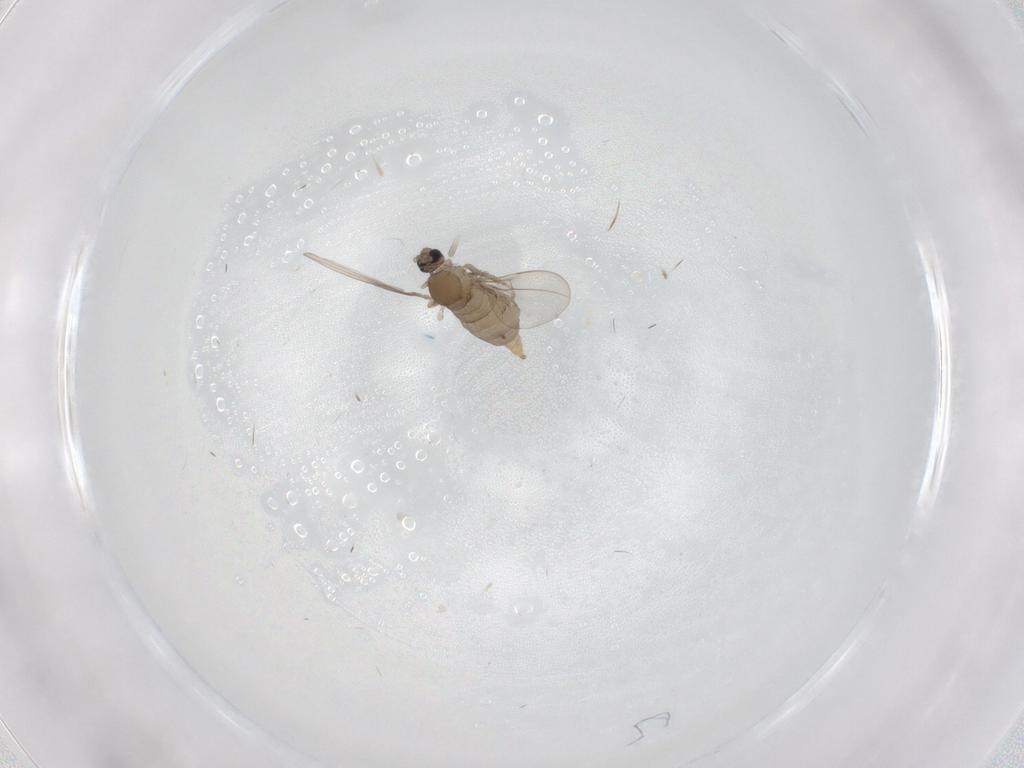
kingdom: Animalia
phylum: Arthropoda
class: Insecta
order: Diptera
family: Cecidomyiidae
